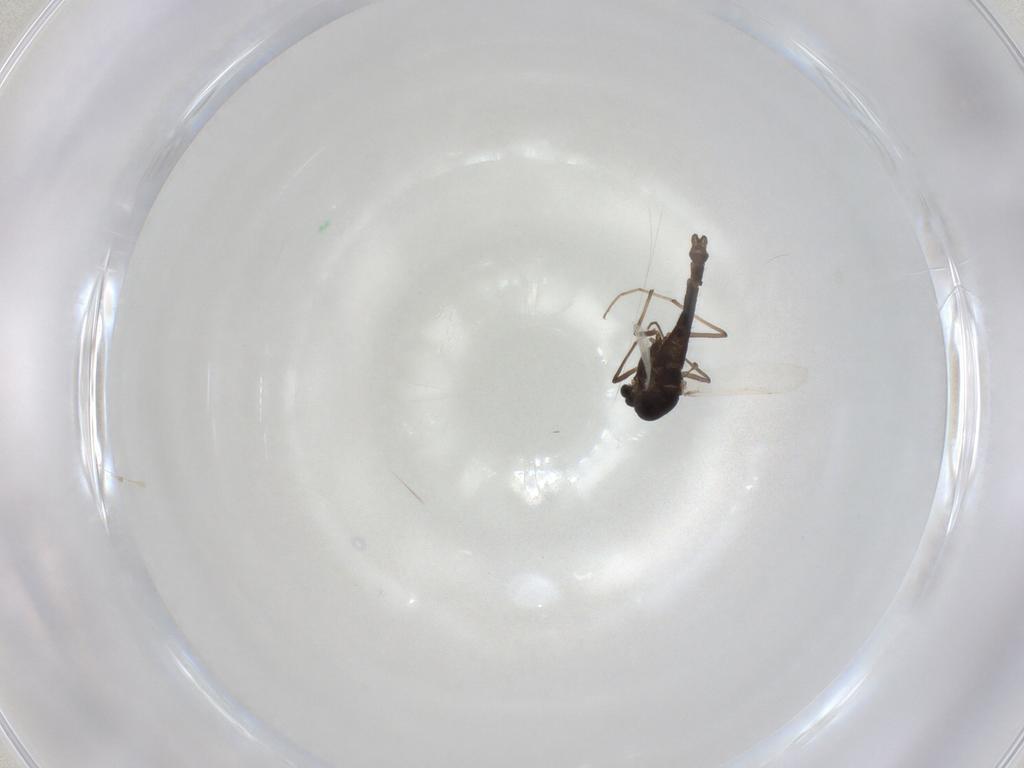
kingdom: Animalia
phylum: Arthropoda
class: Insecta
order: Diptera
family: Chironomidae
